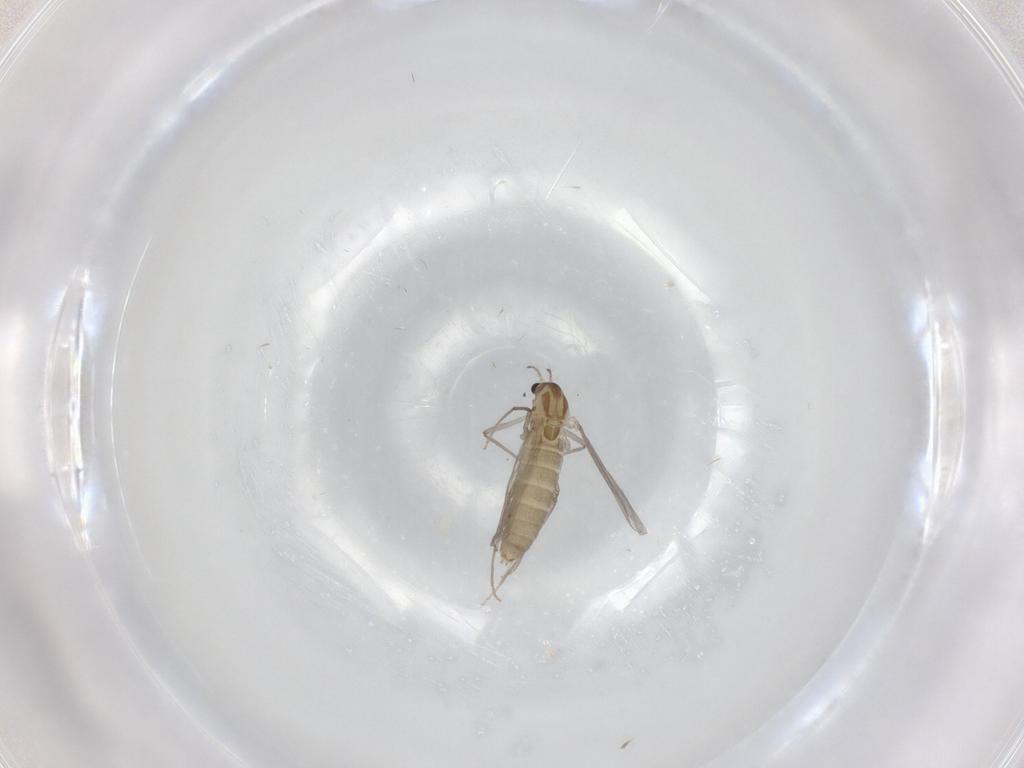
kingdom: Animalia
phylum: Arthropoda
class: Insecta
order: Diptera
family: Chironomidae
